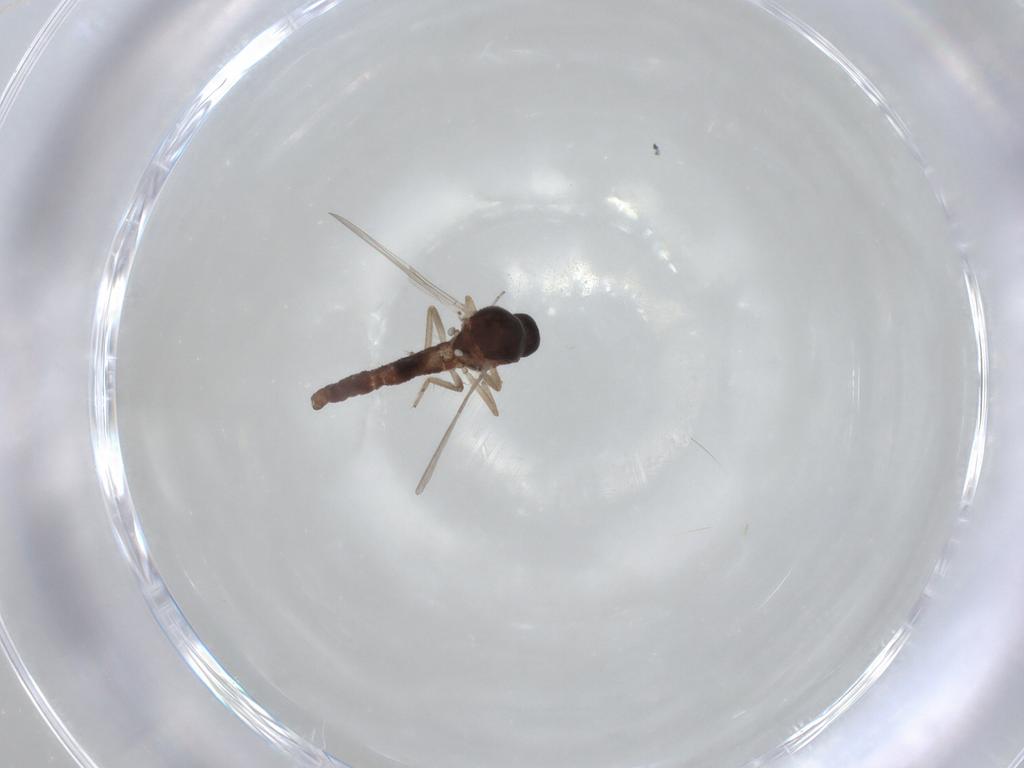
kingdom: Animalia
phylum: Arthropoda
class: Insecta
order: Diptera
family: Ceratopogonidae
